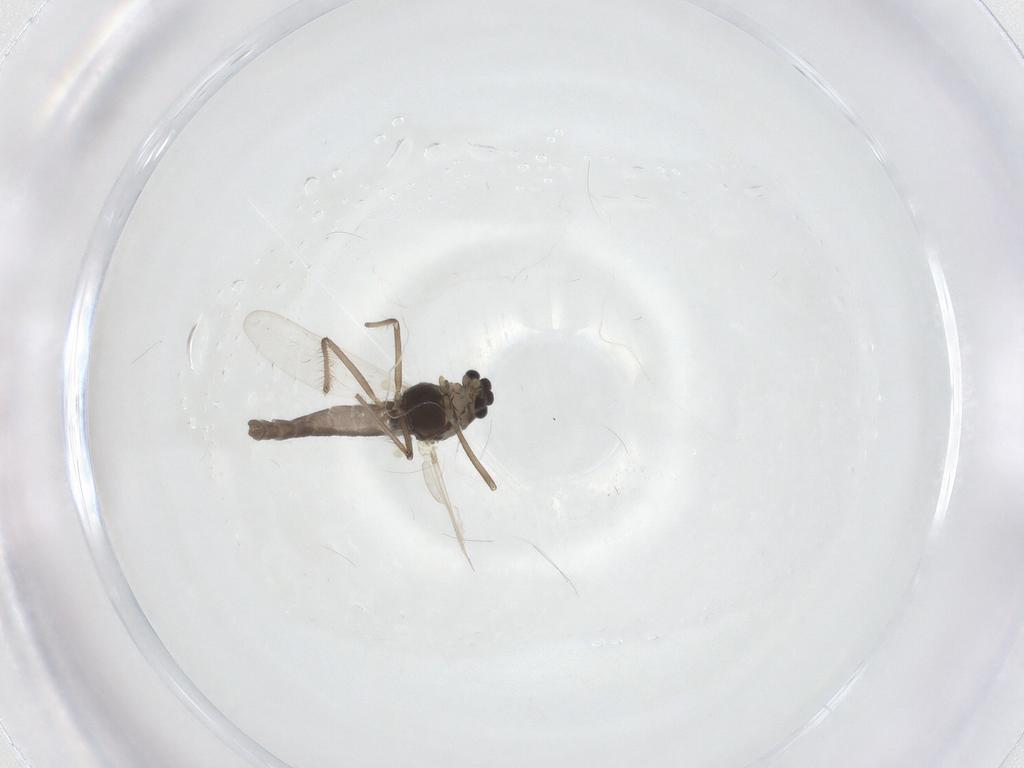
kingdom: Animalia
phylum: Arthropoda
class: Insecta
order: Diptera
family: Chironomidae
